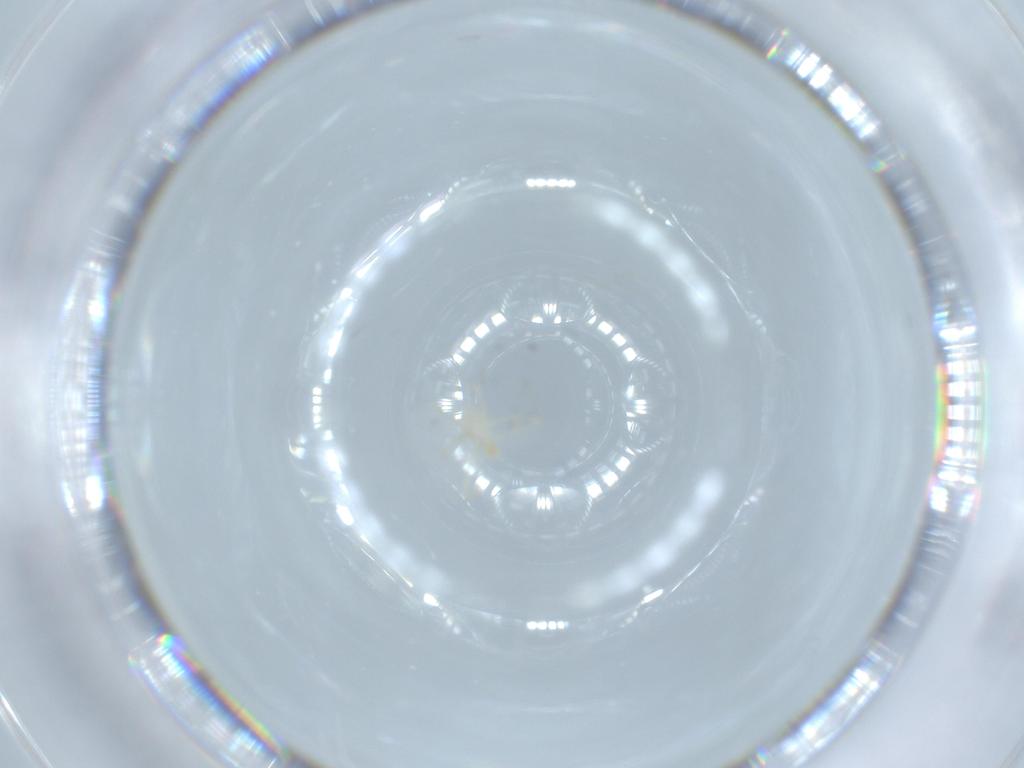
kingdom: Animalia
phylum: Arthropoda
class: Arachnida
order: Trombidiformes
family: Erythraeidae
